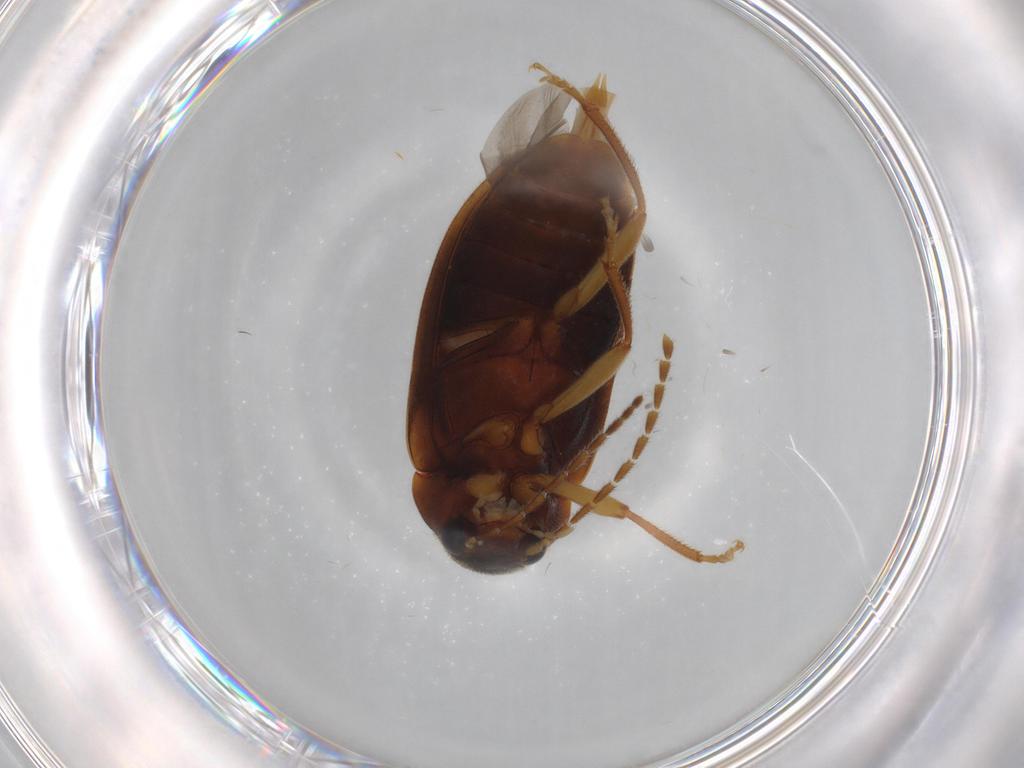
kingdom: Animalia
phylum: Arthropoda
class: Insecta
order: Coleoptera
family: Ptilodactylidae
